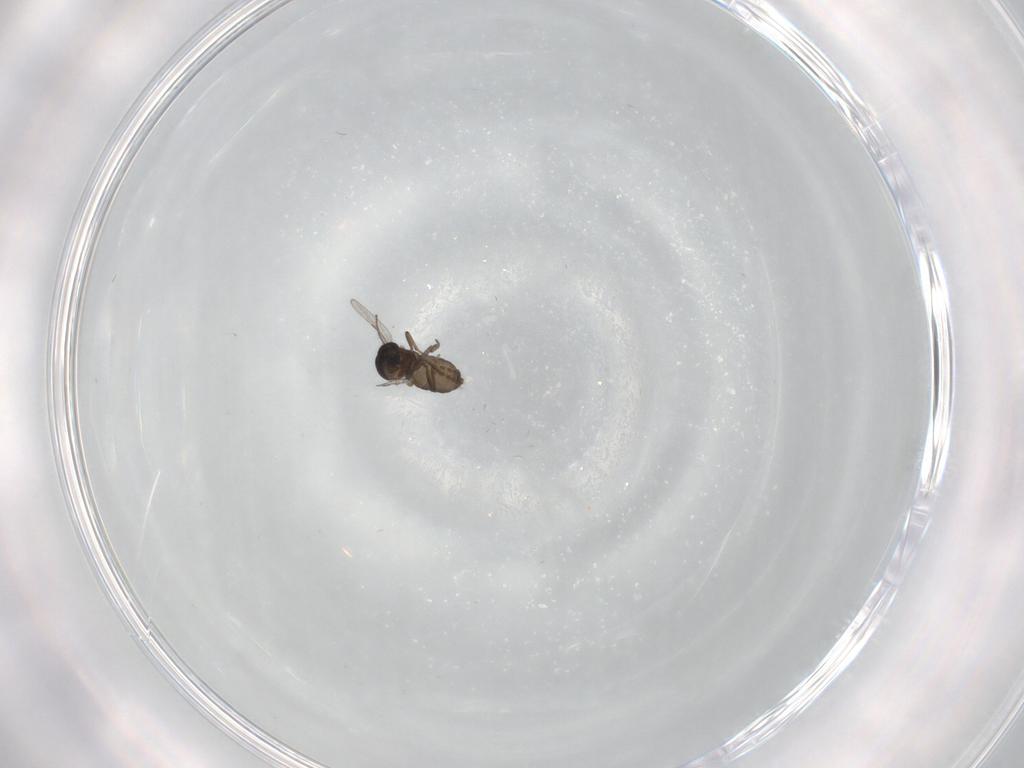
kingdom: Animalia
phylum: Arthropoda
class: Insecta
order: Diptera
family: Ceratopogonidae
